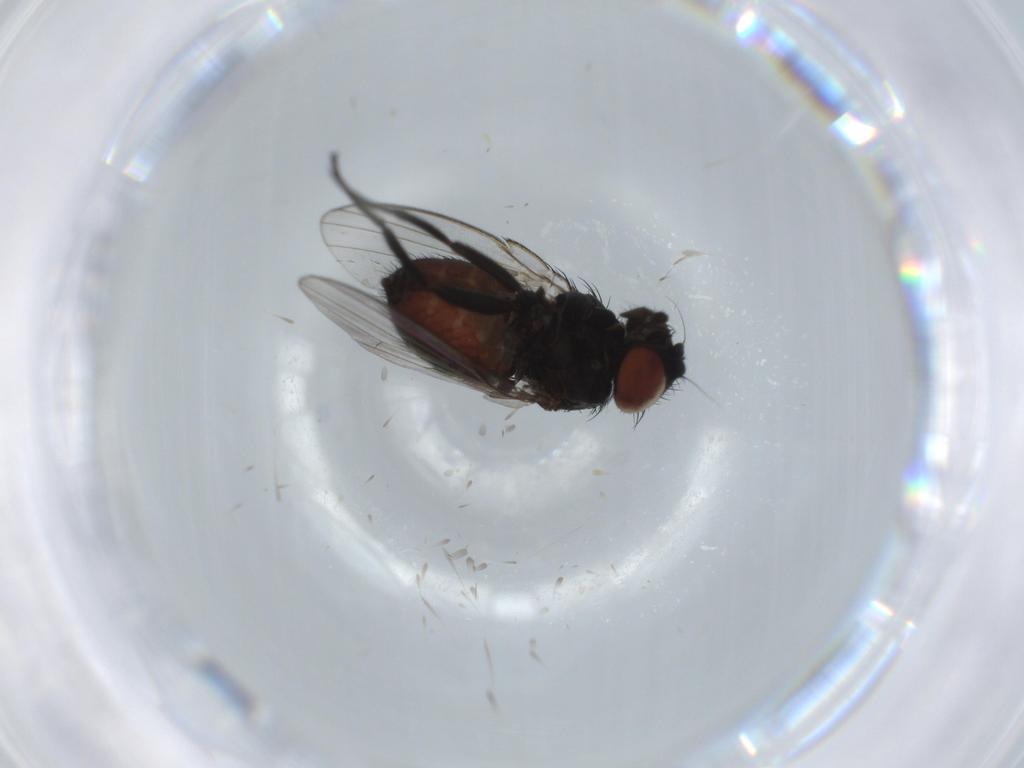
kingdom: Animalia
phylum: Arthropoda
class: Insecta
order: Diptera
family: Milichiidae
